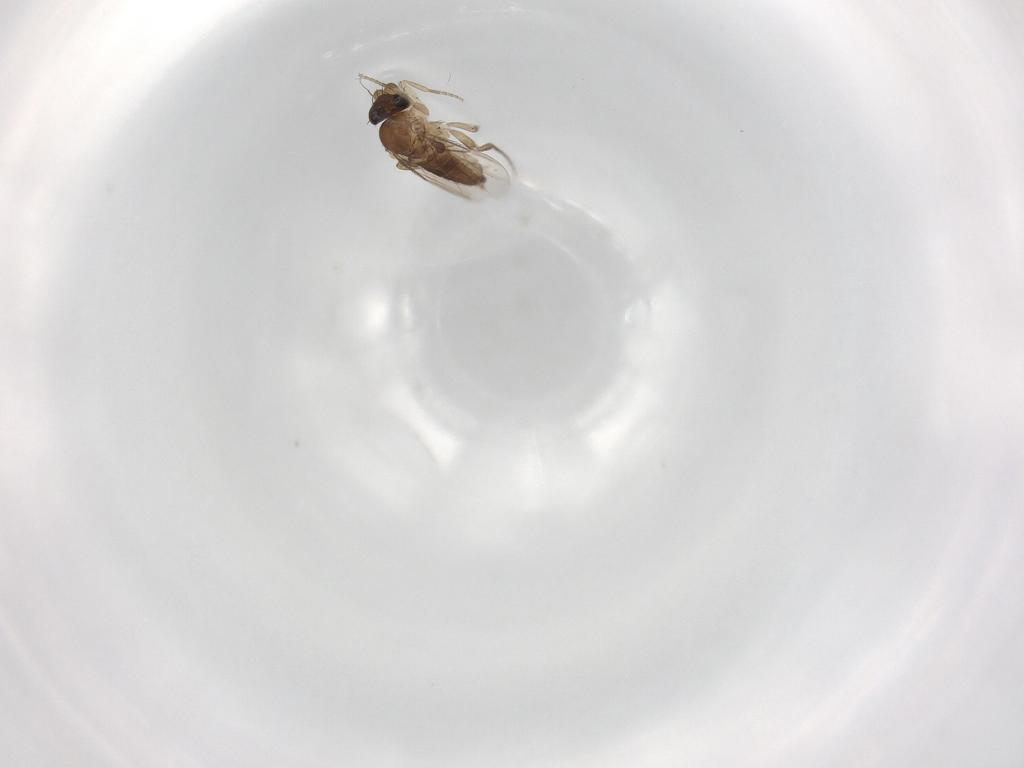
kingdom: Animalia
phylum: Arthropoda
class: Insecta
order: Diptera
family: Phoridae
